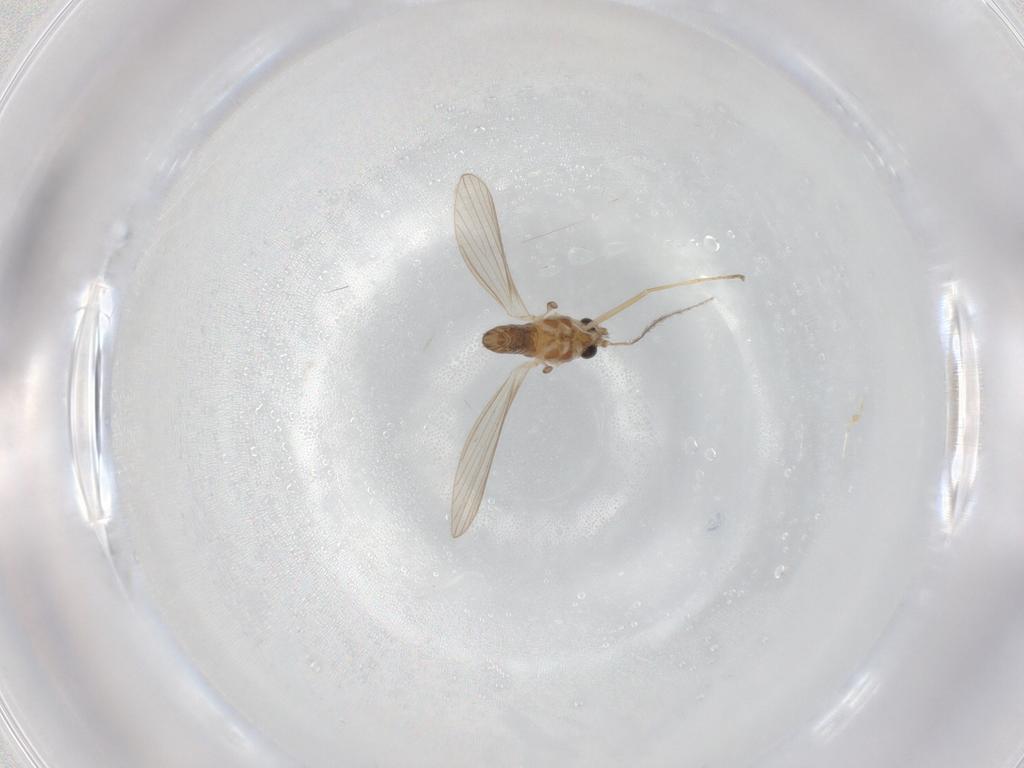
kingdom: Animalia
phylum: Arthropoda
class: Insecta
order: Diptera
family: Psychodidae
